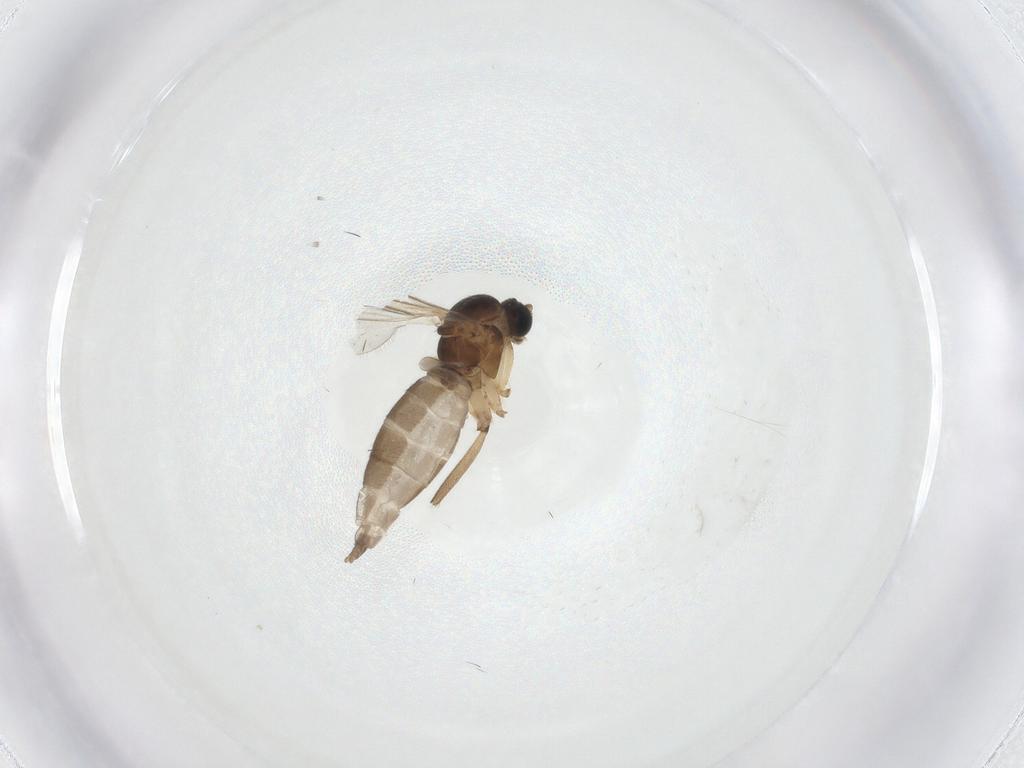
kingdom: Animalia
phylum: Arthropoda
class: Insecta
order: Diptera
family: Sciaridae
